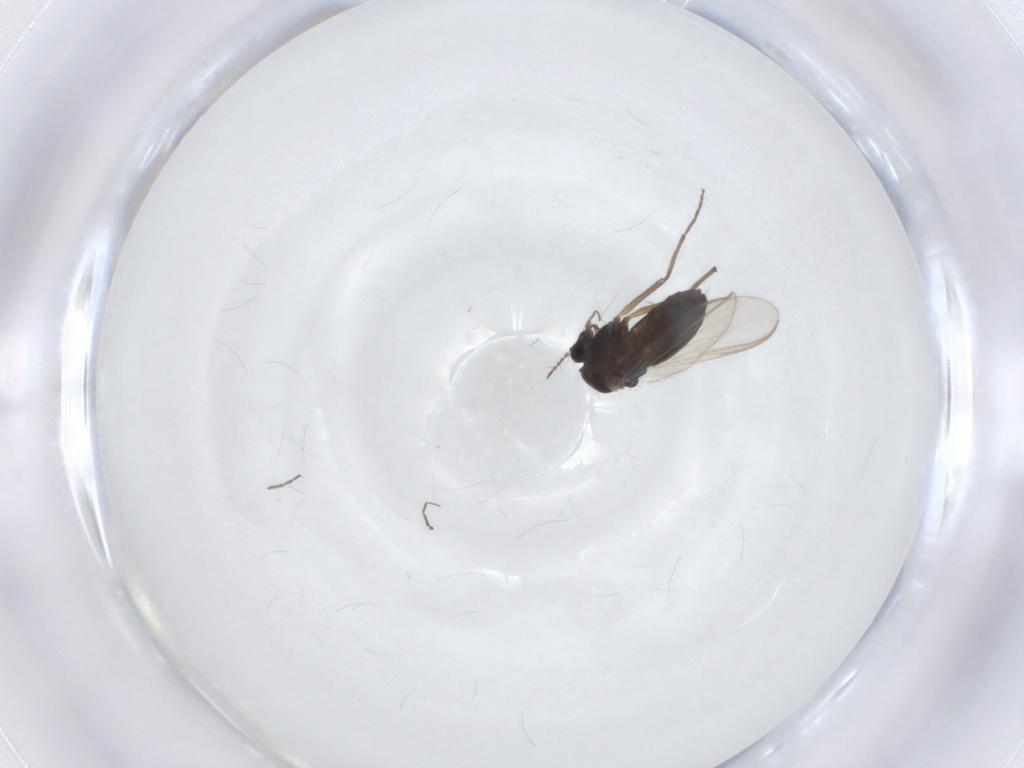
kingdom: Animalia
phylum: Arthropoda
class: Insecta
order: Diptera
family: Chironomidae
